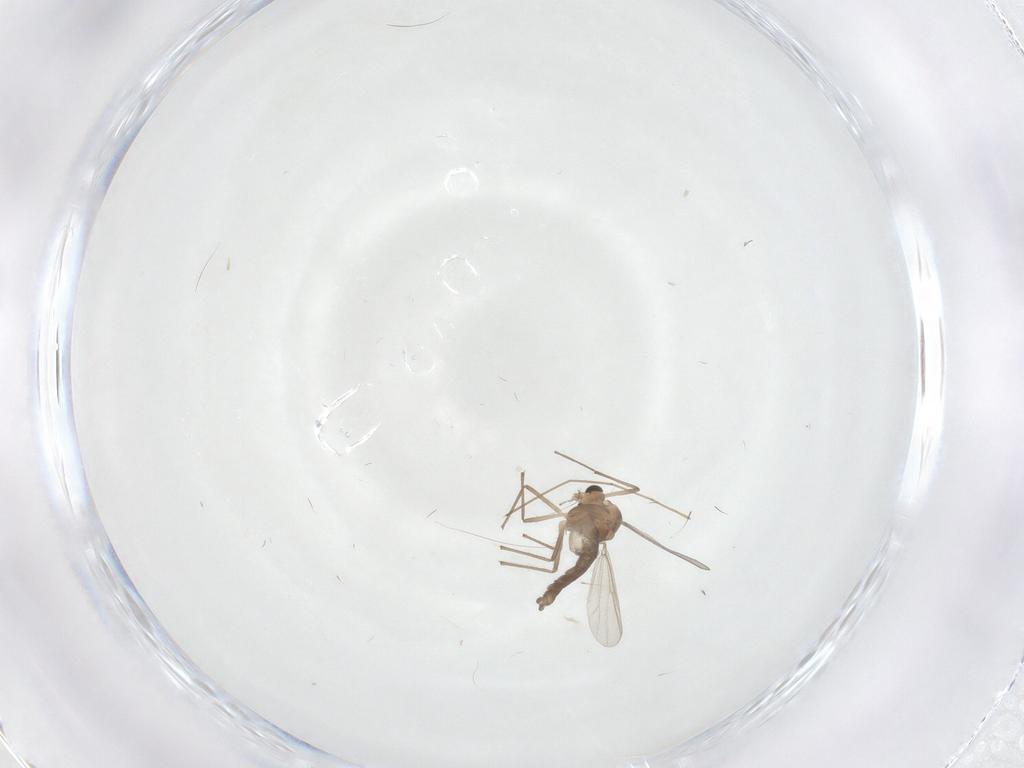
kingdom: Animalia
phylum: Arthropoda
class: Insecta
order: Diptera
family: Chironomidae
